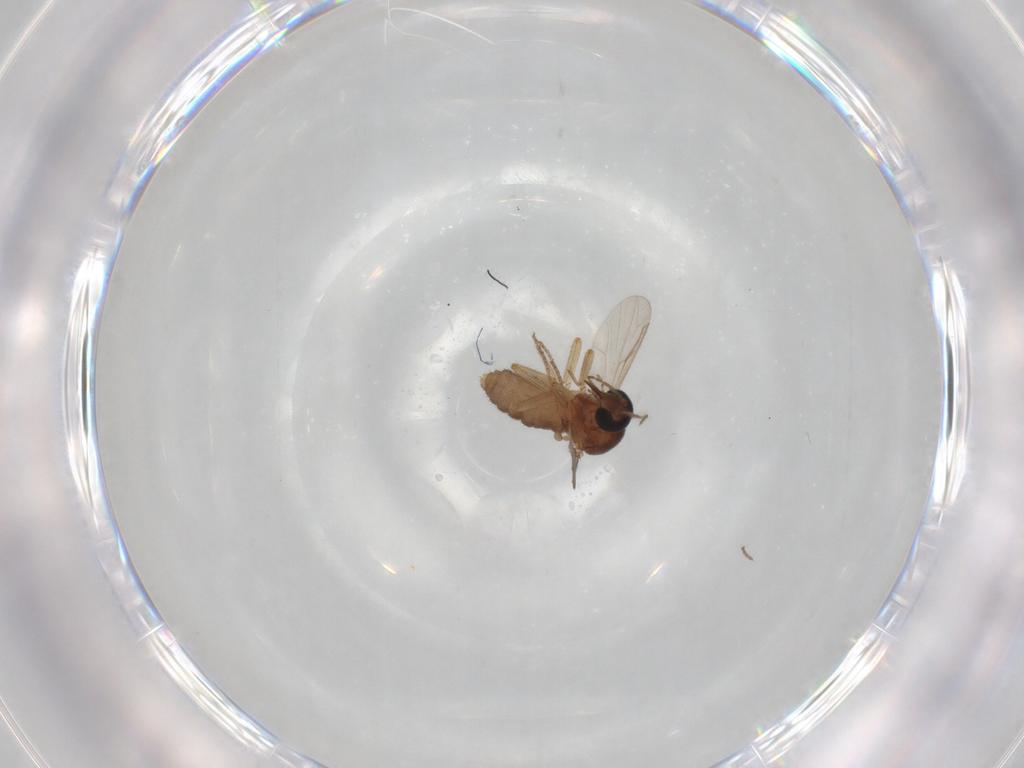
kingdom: Animalia
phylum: Arthropoda
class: Insecta
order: Diptera
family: Ceratopogonidae
